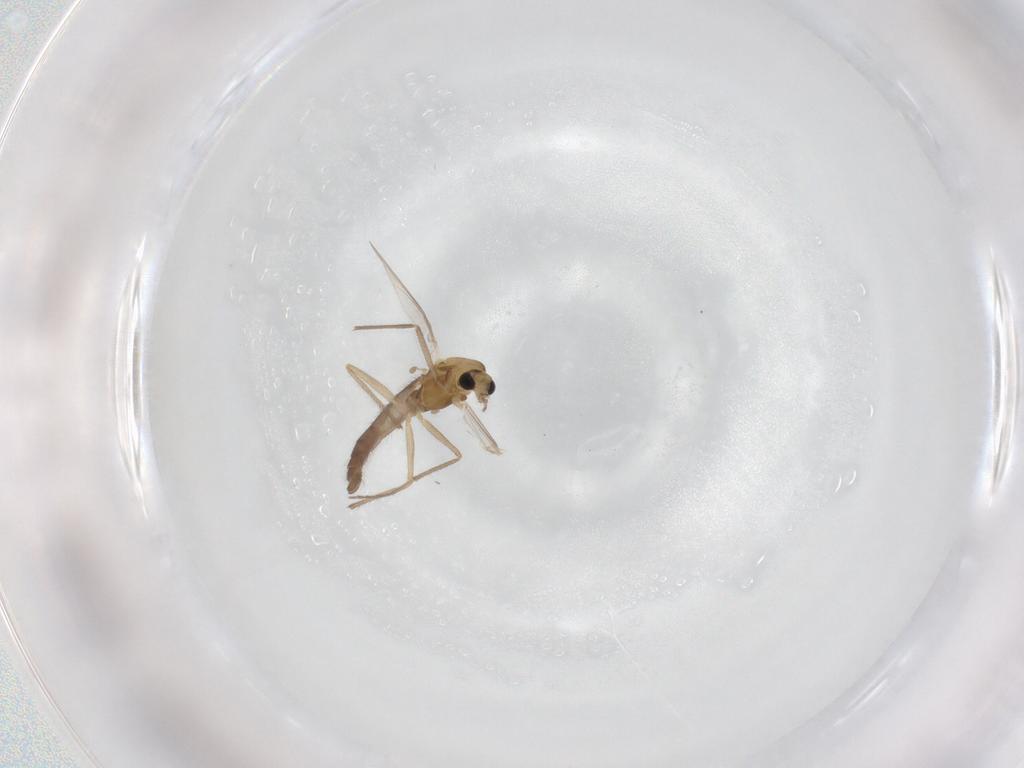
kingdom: Animalia
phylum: Arthropoda
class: Insecta
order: Diptera
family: Chironomidae
